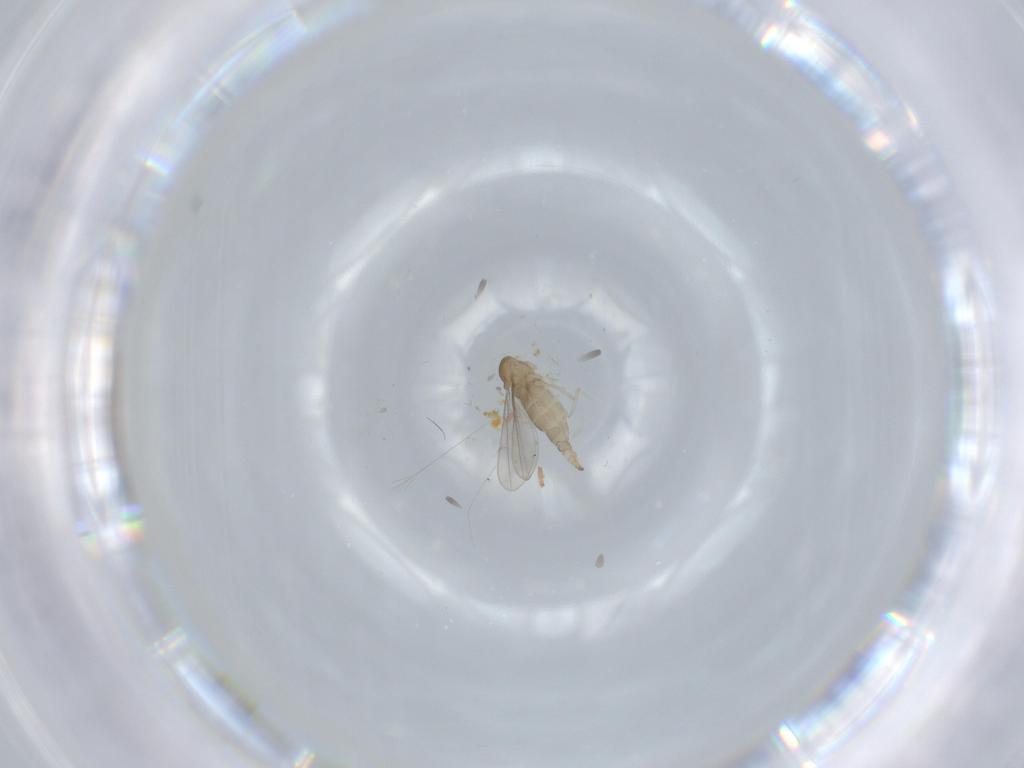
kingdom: Animalia
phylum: Arthropoda
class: Insecta
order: Diptera
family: Cecidomyiidae
